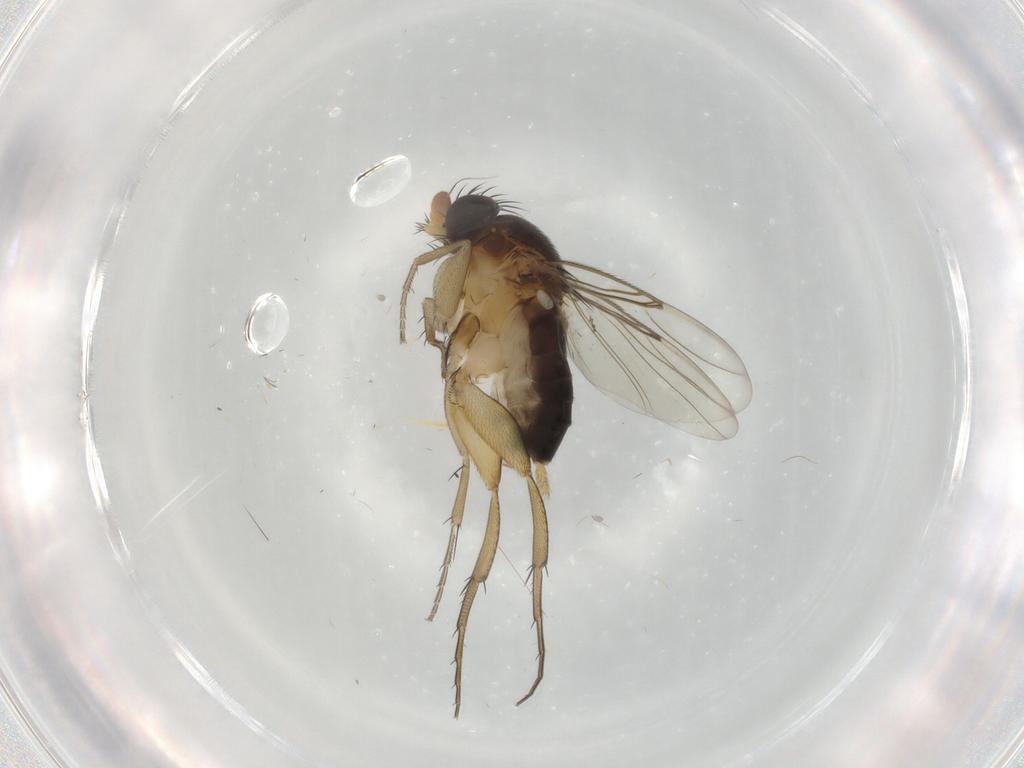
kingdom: Animalia
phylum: Arthropoda
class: Insecta
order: Diptera
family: Phoridae
